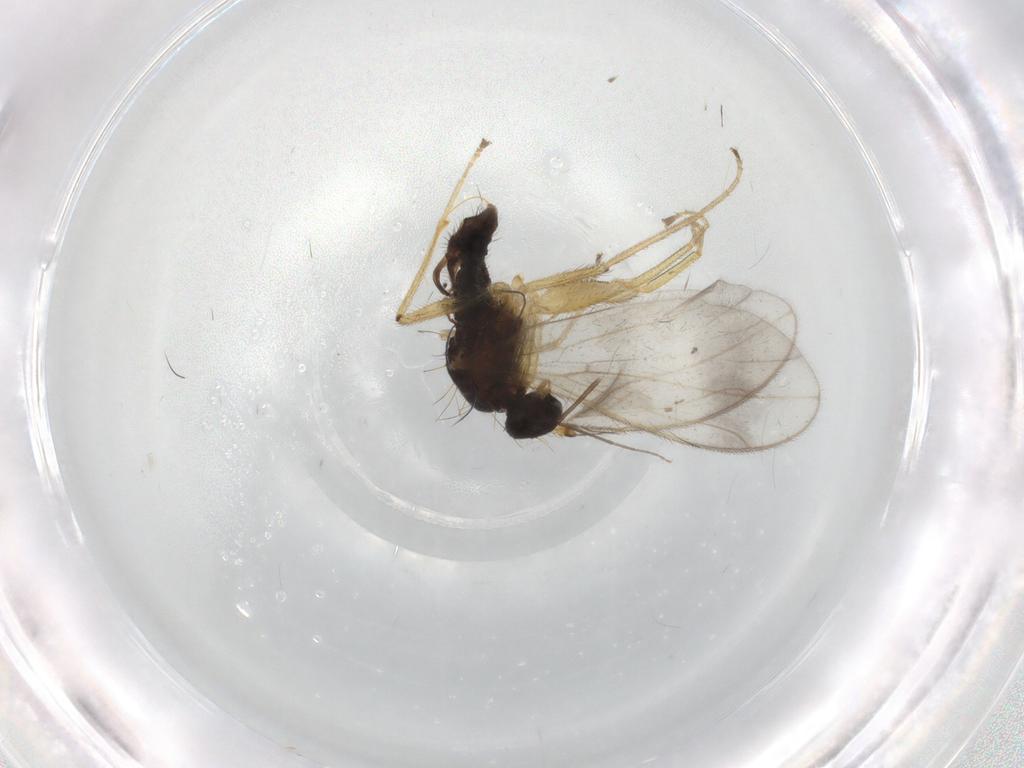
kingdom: Animalia
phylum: Arthropoda
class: Insecta
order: Diptera
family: Empididae
